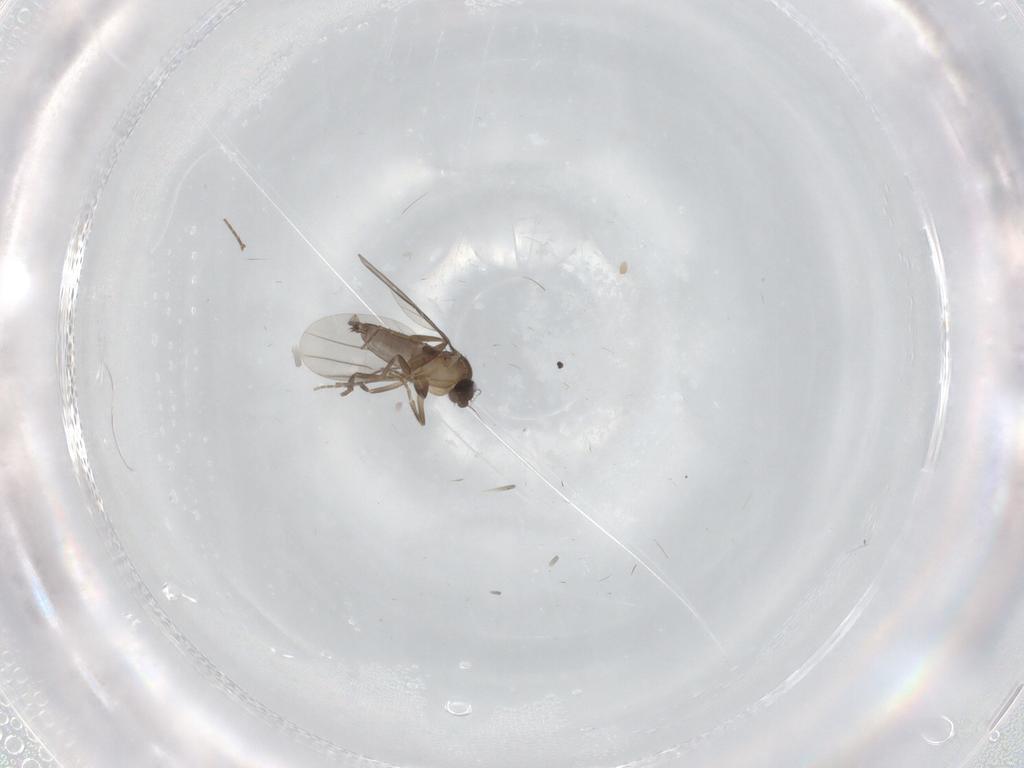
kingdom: Animalia
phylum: Arthropoda
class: Insecta
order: Diptera
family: Phoridae
